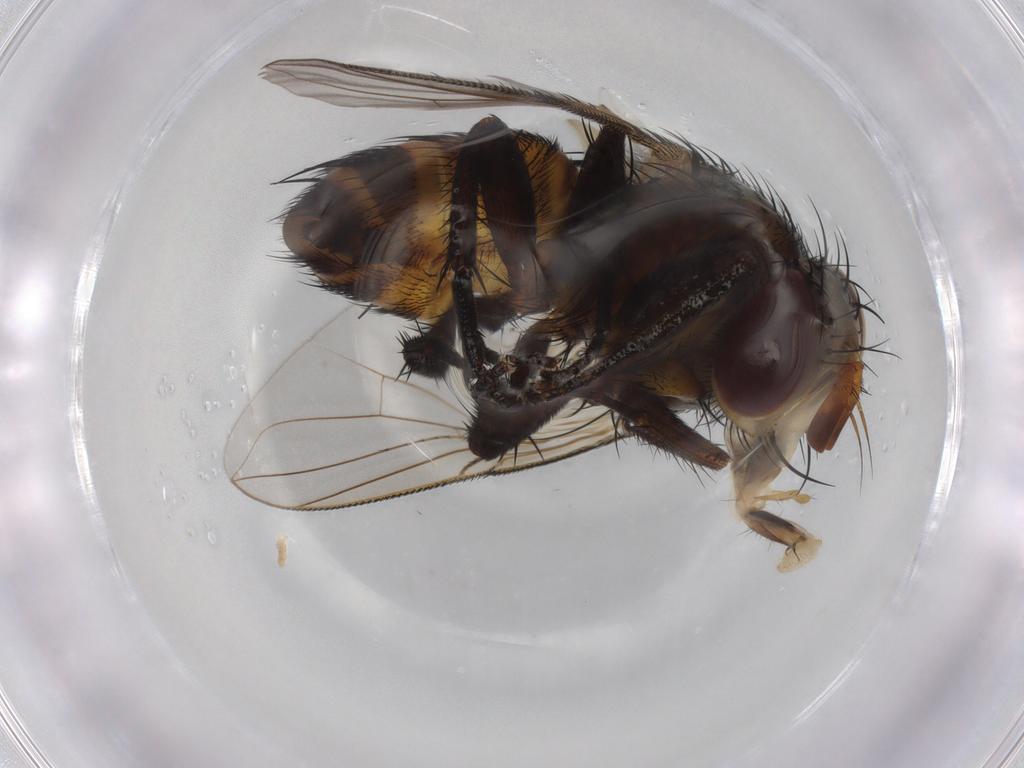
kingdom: Animalia
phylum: Arthropoda
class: Insecta
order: Diptera
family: Tachinidae
